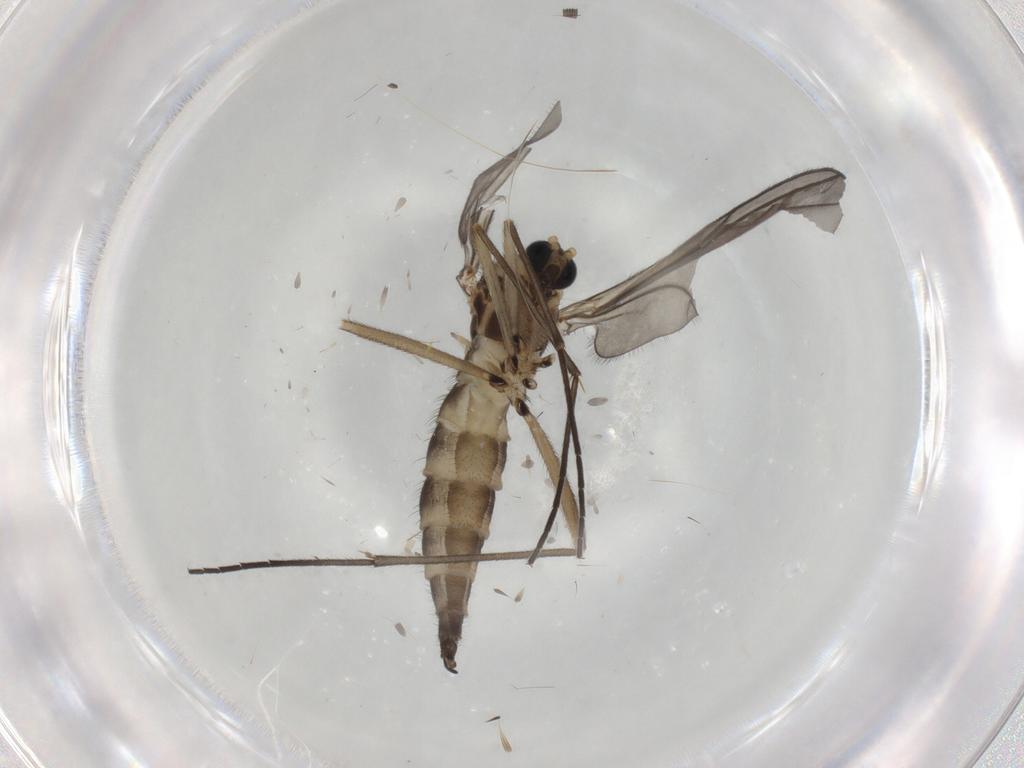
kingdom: Animalia
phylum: Arthropoda
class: Insecta
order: Diptera
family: Sciaridae
